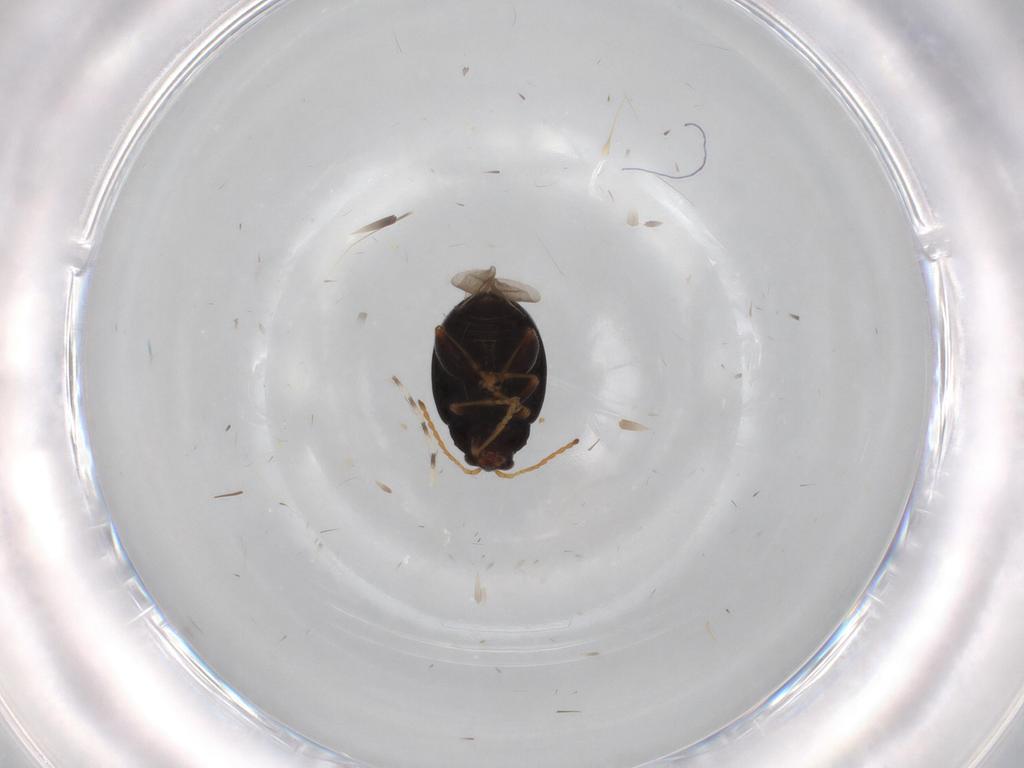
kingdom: Animalia
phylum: Arthropoda
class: Insecta
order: Coleoptera
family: Chrysomelidae
